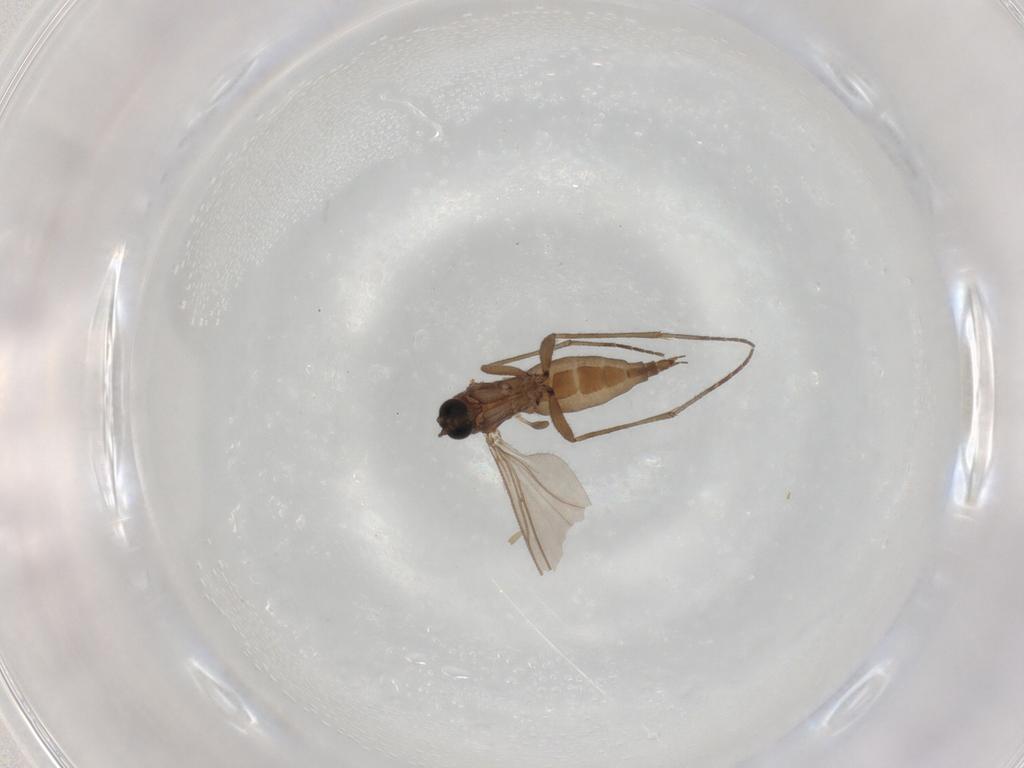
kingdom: Animalia
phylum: Arthropoda
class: Insecta
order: Diptera
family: Sciaridae
